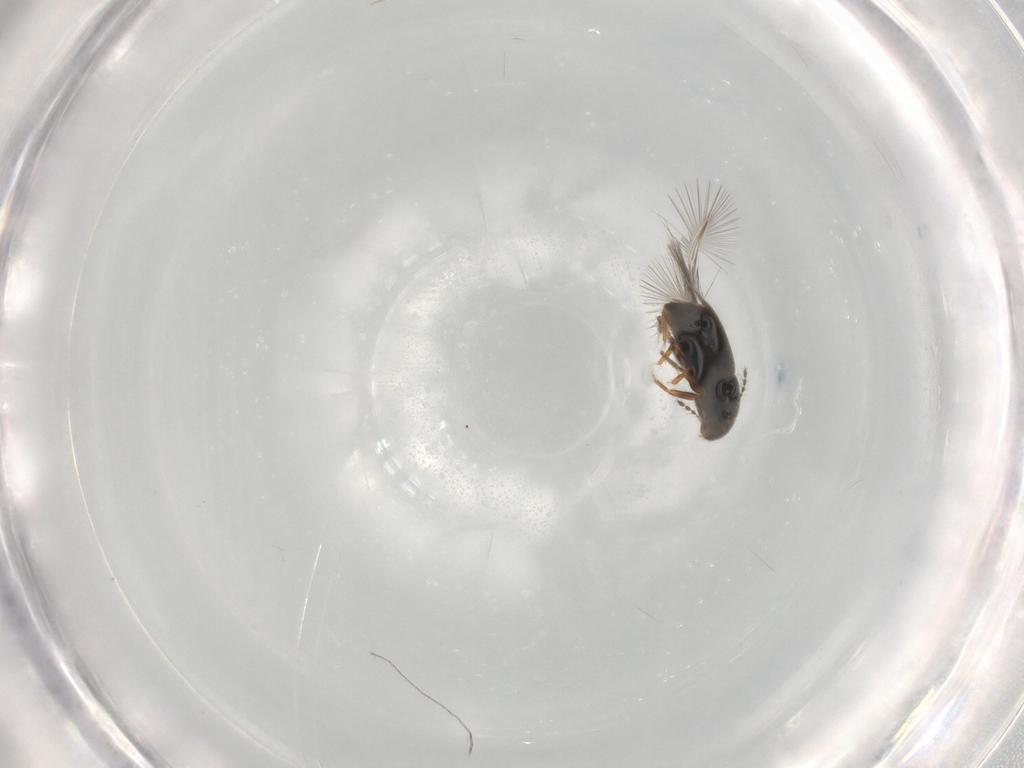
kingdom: Animalia
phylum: Arthropoda
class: Insecta
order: Coleoptera
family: Ptiliidae
